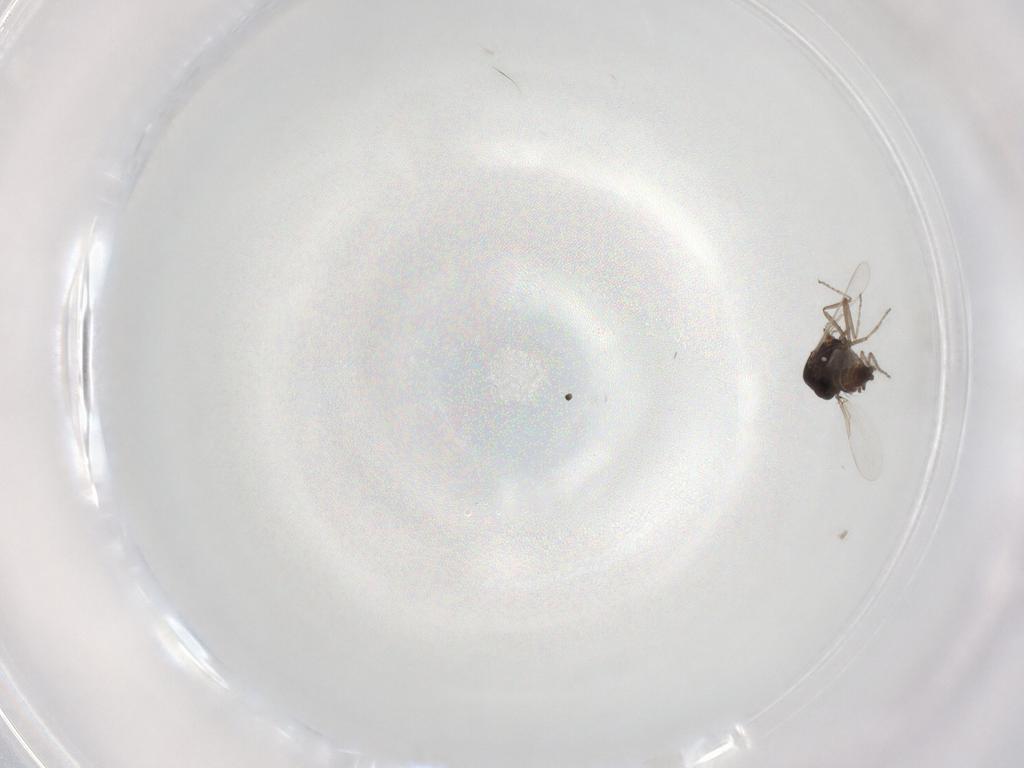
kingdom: Animalia
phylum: Arthropoda
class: Insecta
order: Diptera
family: Ceratopogonidae
